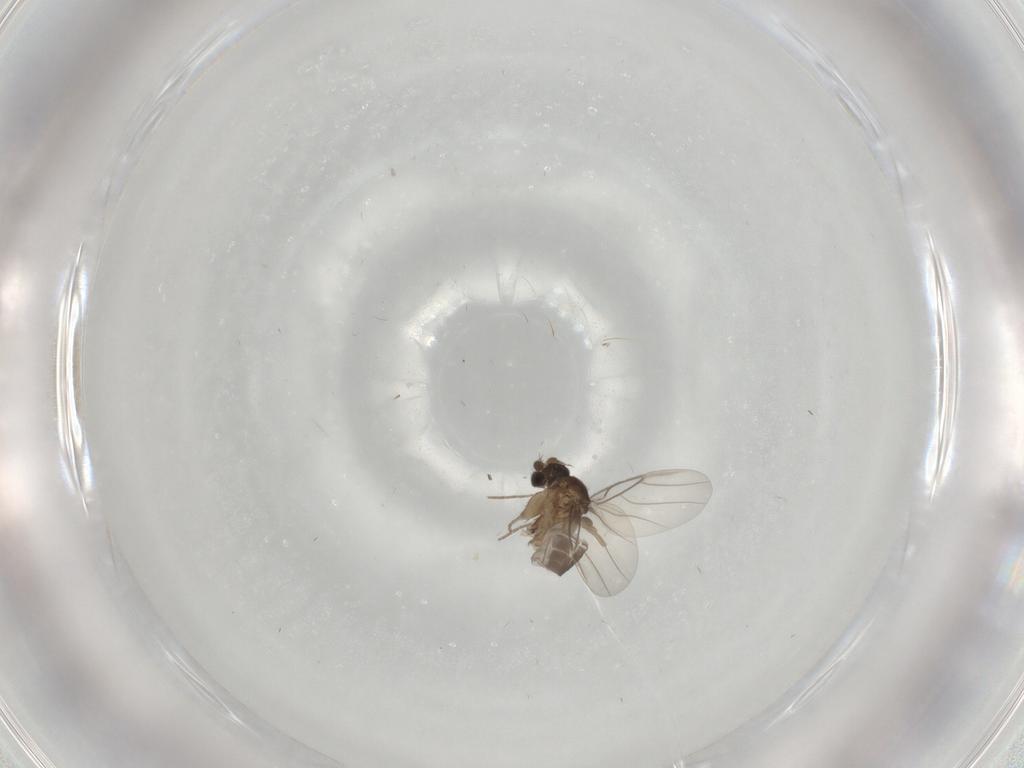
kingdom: Animalia
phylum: Arthropoda
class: Insecta
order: Diptera
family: Phoridae
